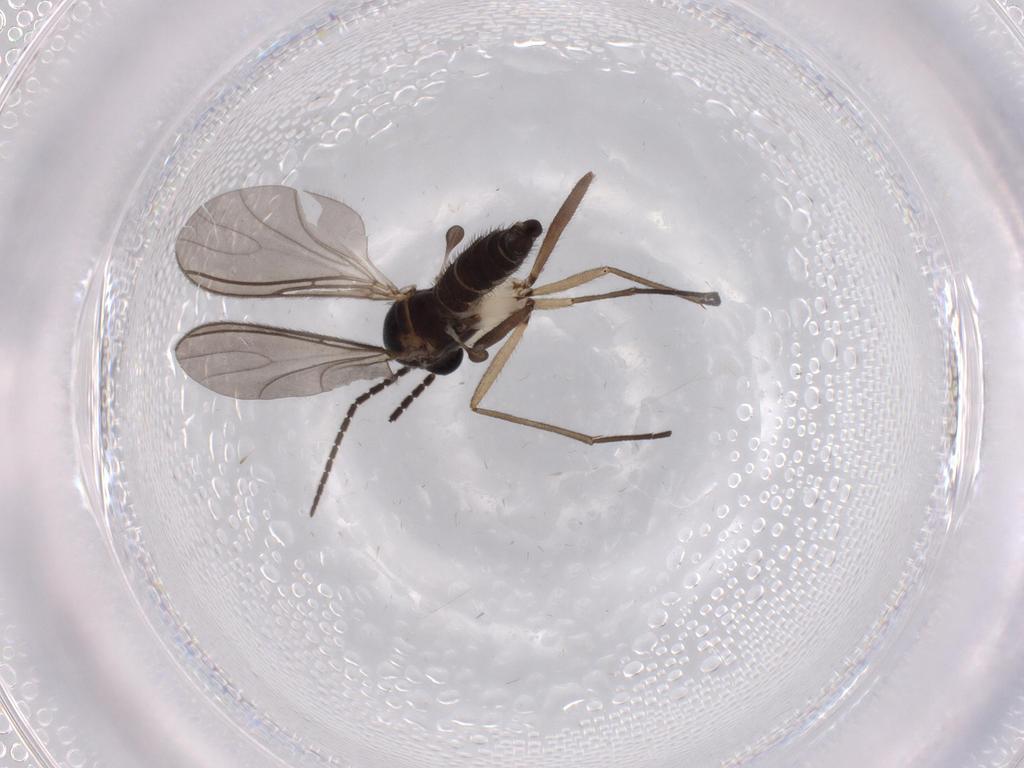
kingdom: Animalia
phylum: Arthropoda
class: Insecta
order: Diptera
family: Sciaridae
